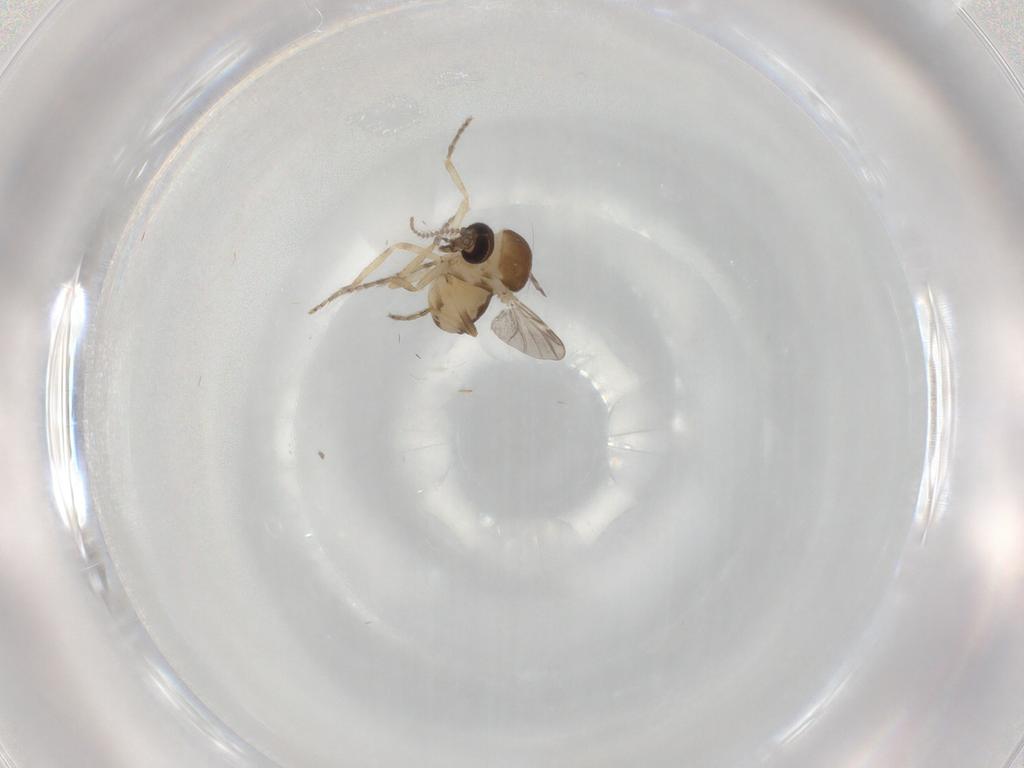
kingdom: Animalia
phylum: Arthropoda
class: Insecta
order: Diptera
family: Ceratopogonidae
